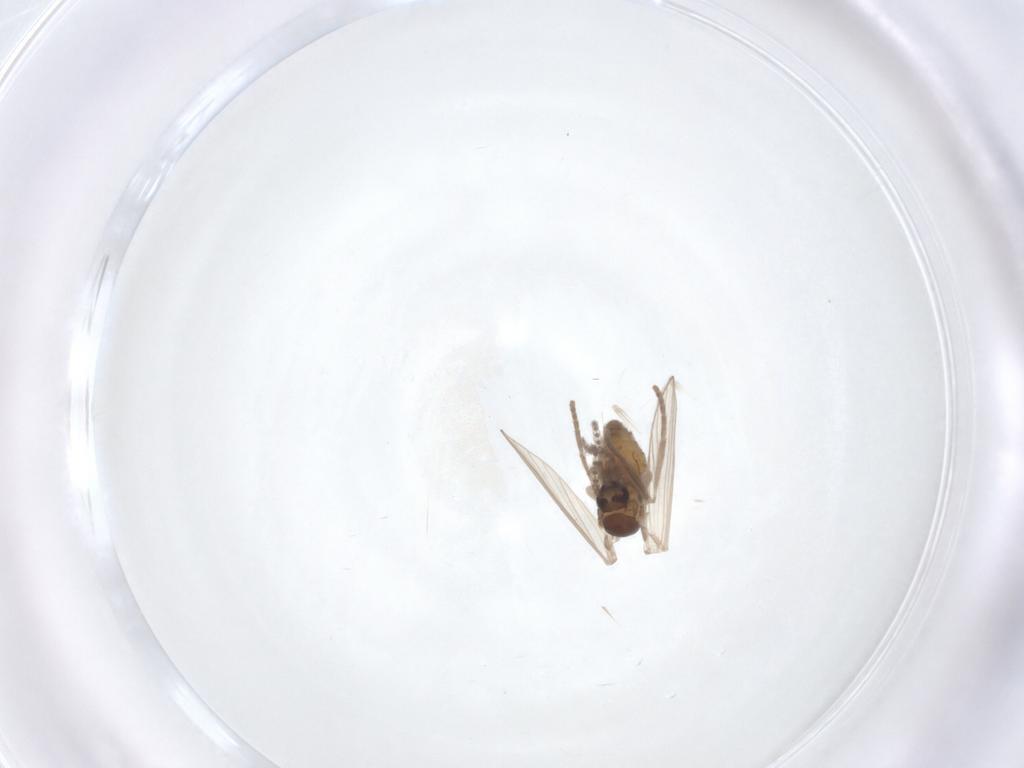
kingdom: Animalia
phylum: Arthropoda
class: Insecta
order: Diptera
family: Psychodidae
